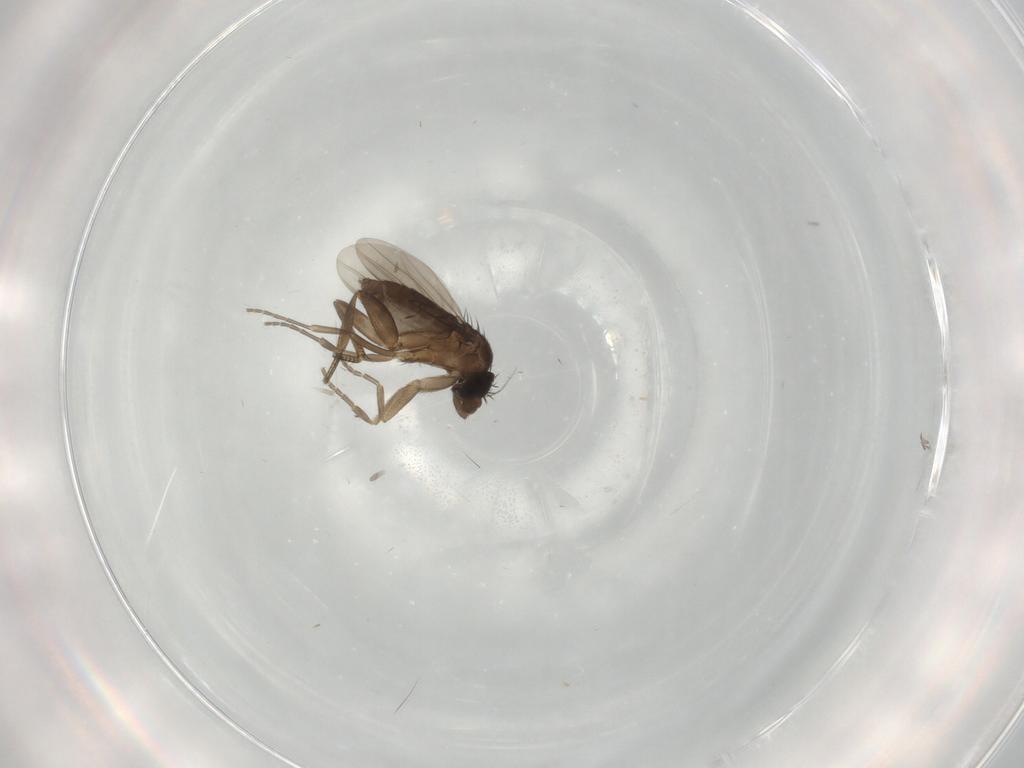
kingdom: Animalia
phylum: Arthropoda
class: Insecta
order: Diptera
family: Phoridae
